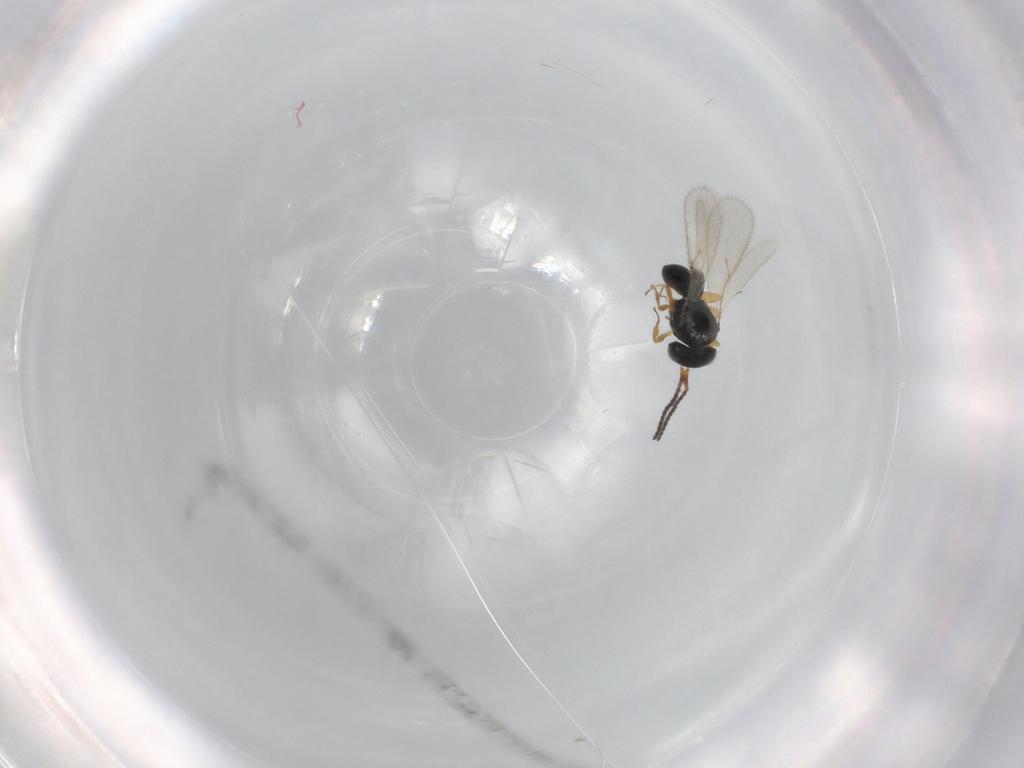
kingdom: Animalia
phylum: Arthropoda
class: Insecta
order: Hymenoptera
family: Scelionidae
